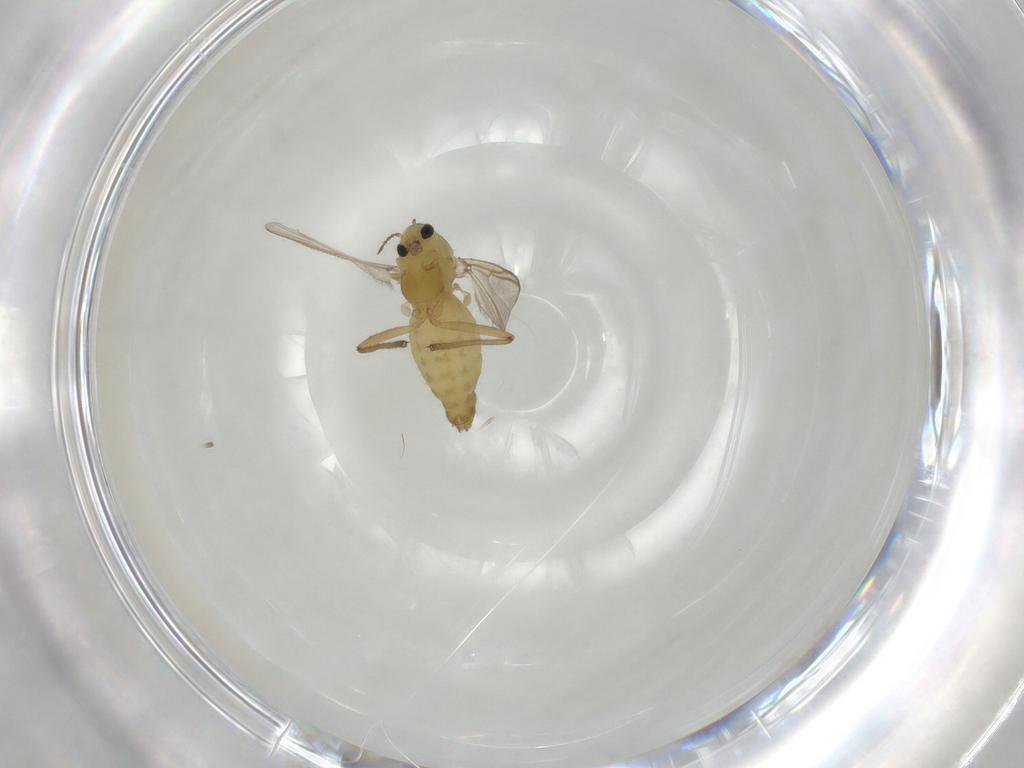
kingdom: Animalia
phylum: Arthropoda
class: Insecta
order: Diptera
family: Chironomidae
